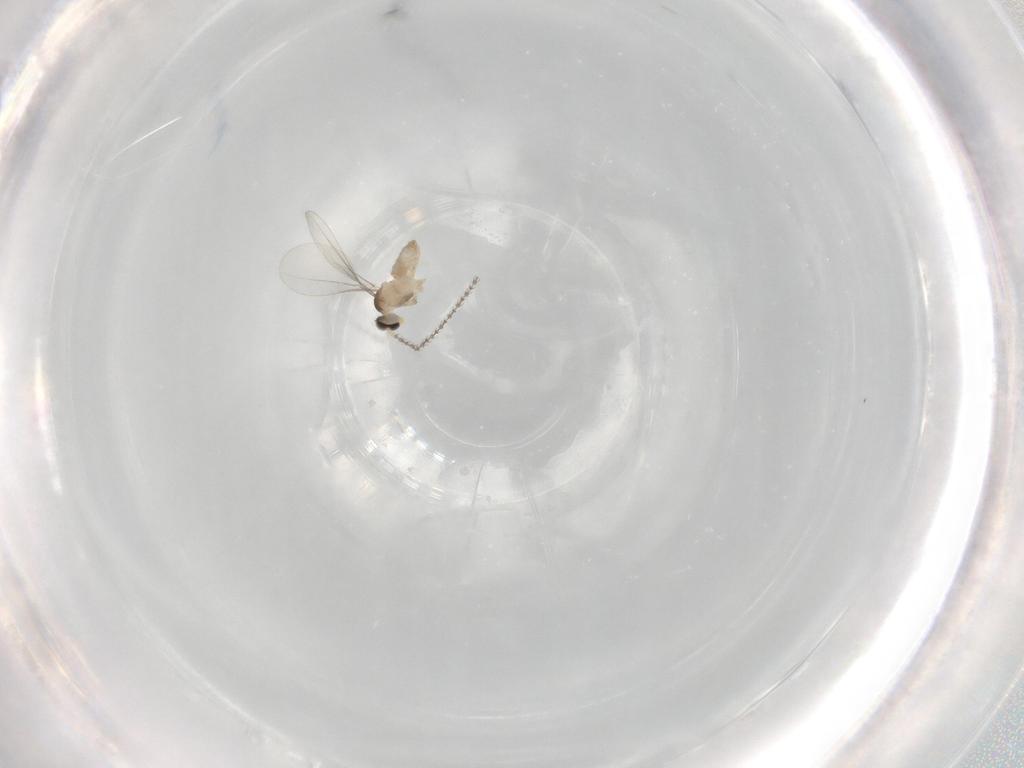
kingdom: Animalia
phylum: Arthropoda
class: Insecta
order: Diptera
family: Cecidomyiidae
